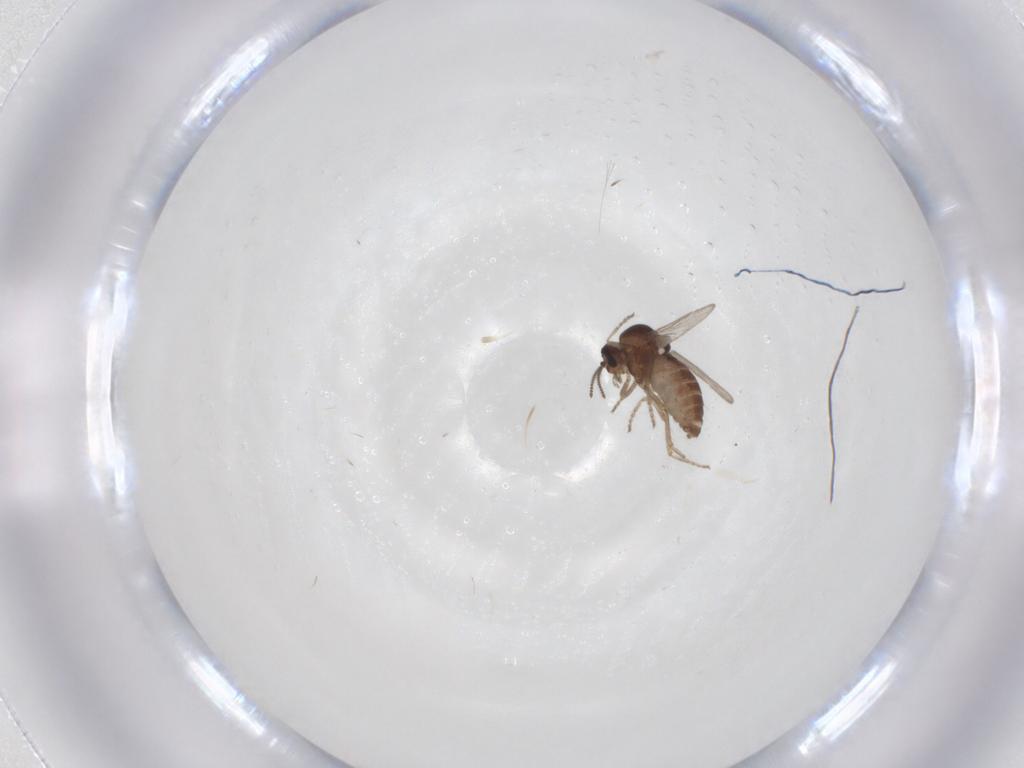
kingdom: Animalia
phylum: Arthropoda
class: Insecta
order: Diptera
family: Ceratopogonidae
